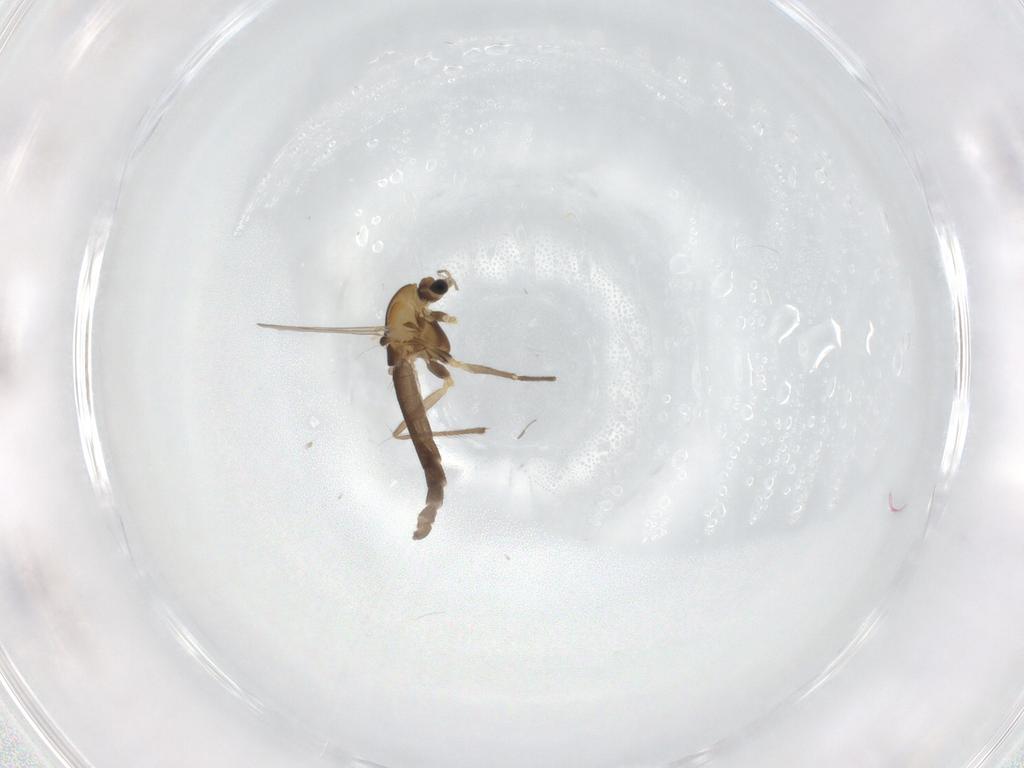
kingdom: Animalia
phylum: Arthropoda
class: Insecta
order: Diptera
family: Chironomidae
